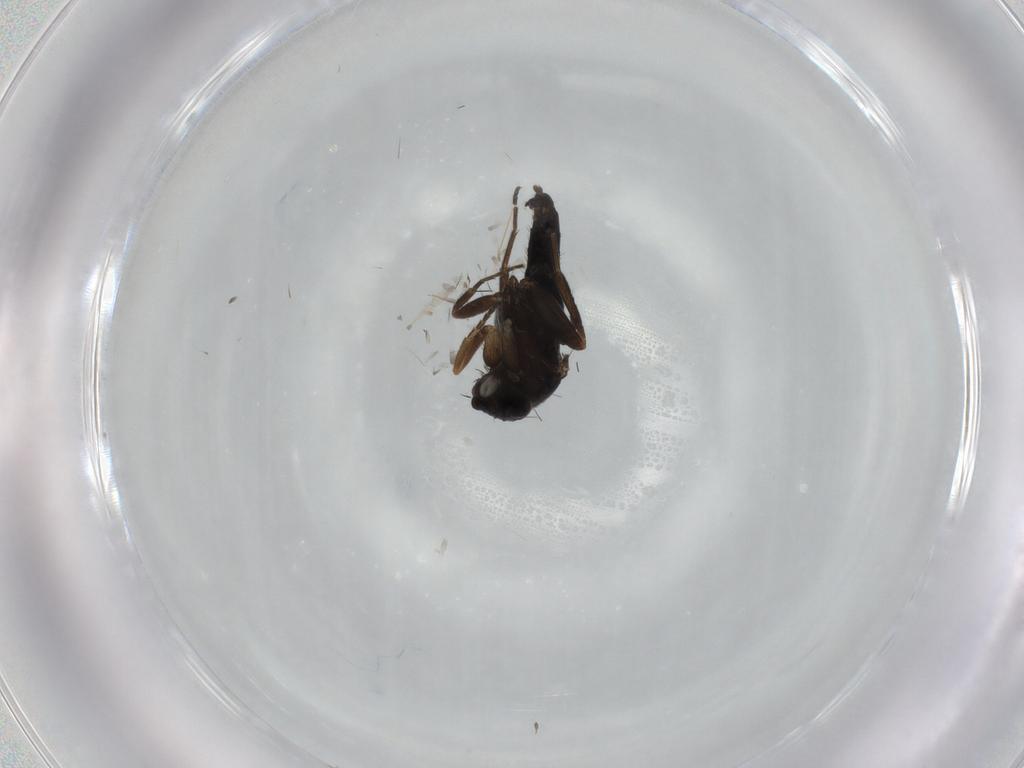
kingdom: Animalia
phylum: Arthropoda
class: Insecta
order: Diptera
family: Phoridae
